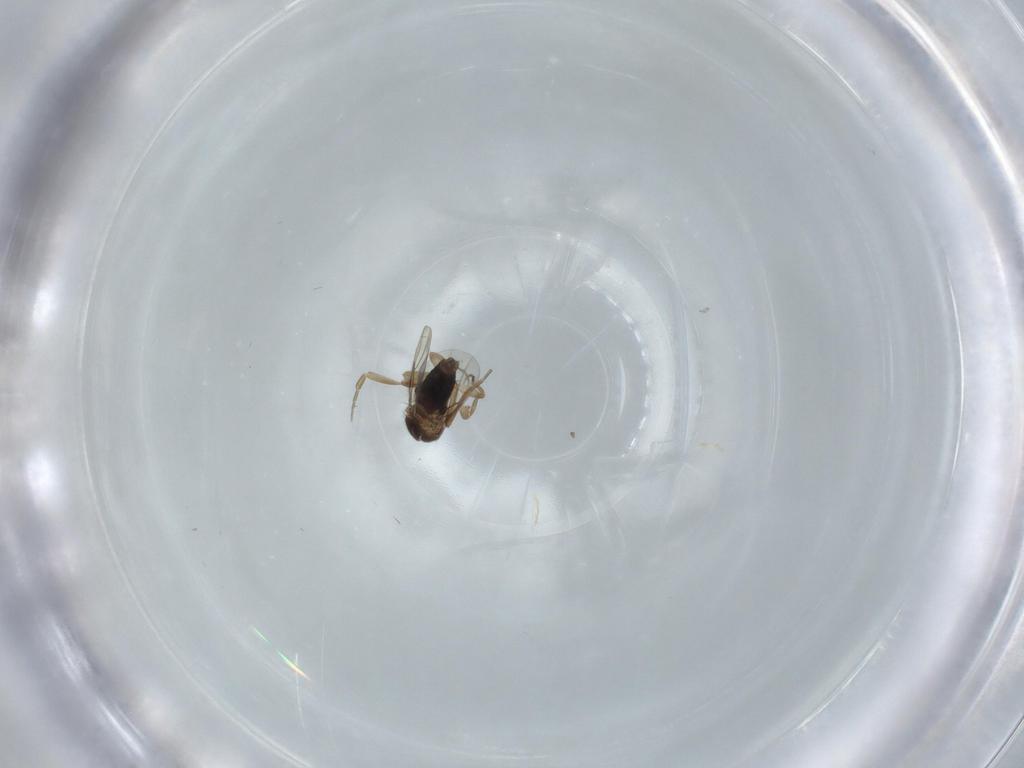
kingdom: Animalia
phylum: Arthropoda
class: Insecta
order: Diptera
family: Phoridae
